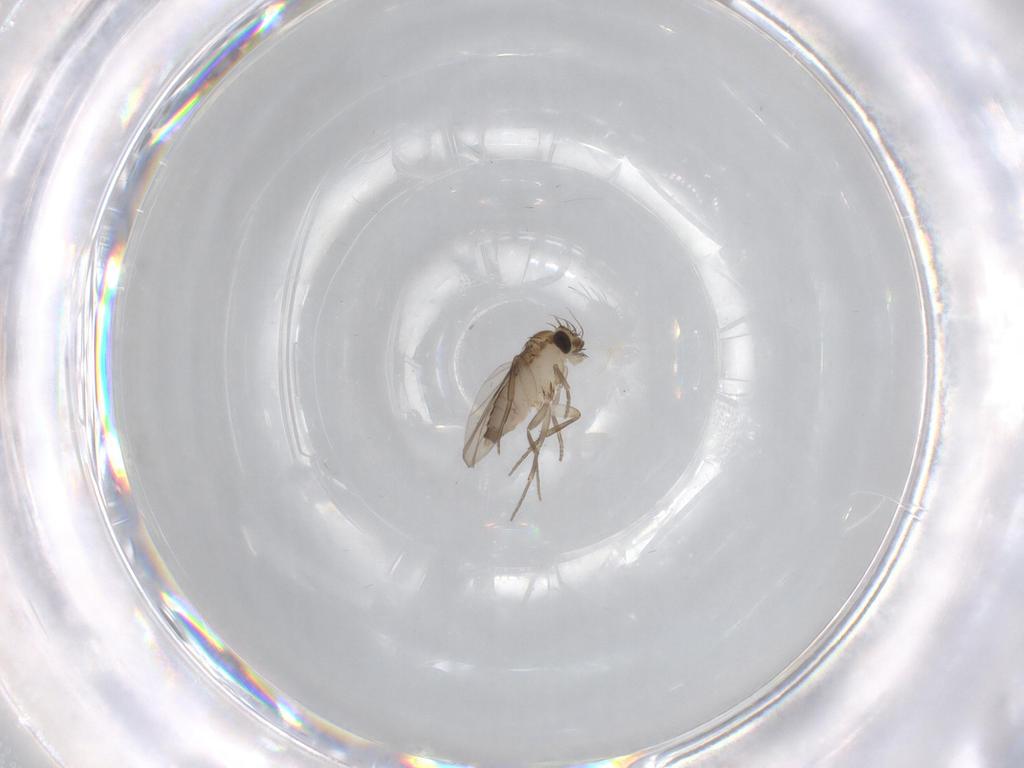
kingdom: Animalia
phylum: Arthropoda
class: Insecta
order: Diptera
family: Phoridae
